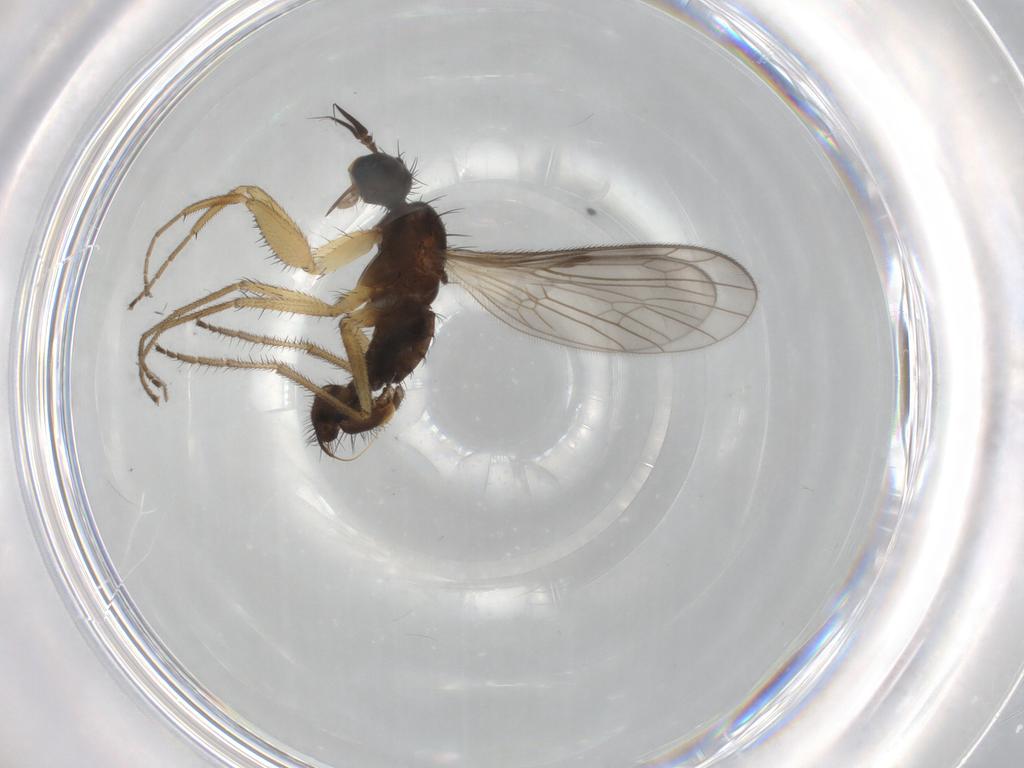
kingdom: Animalia
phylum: Arthropoda
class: Insecta
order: Diptera
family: Chironomidae
